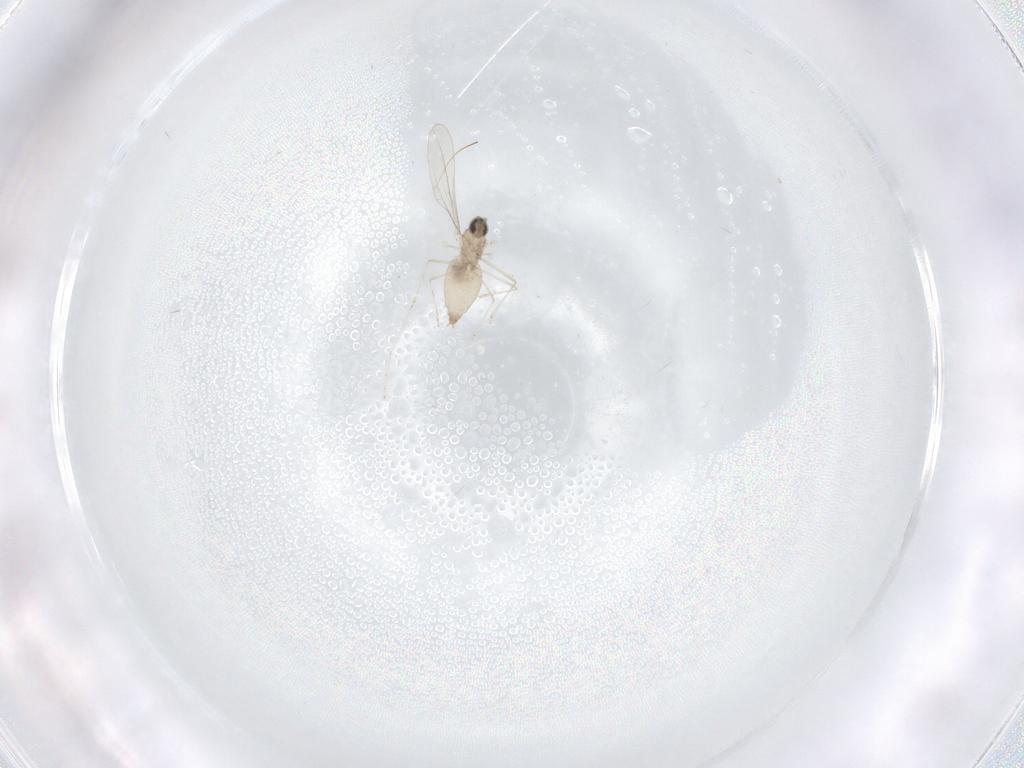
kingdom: Animalia
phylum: Arthropoda
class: Insecta
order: Diptera
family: Cecidomyiidae
